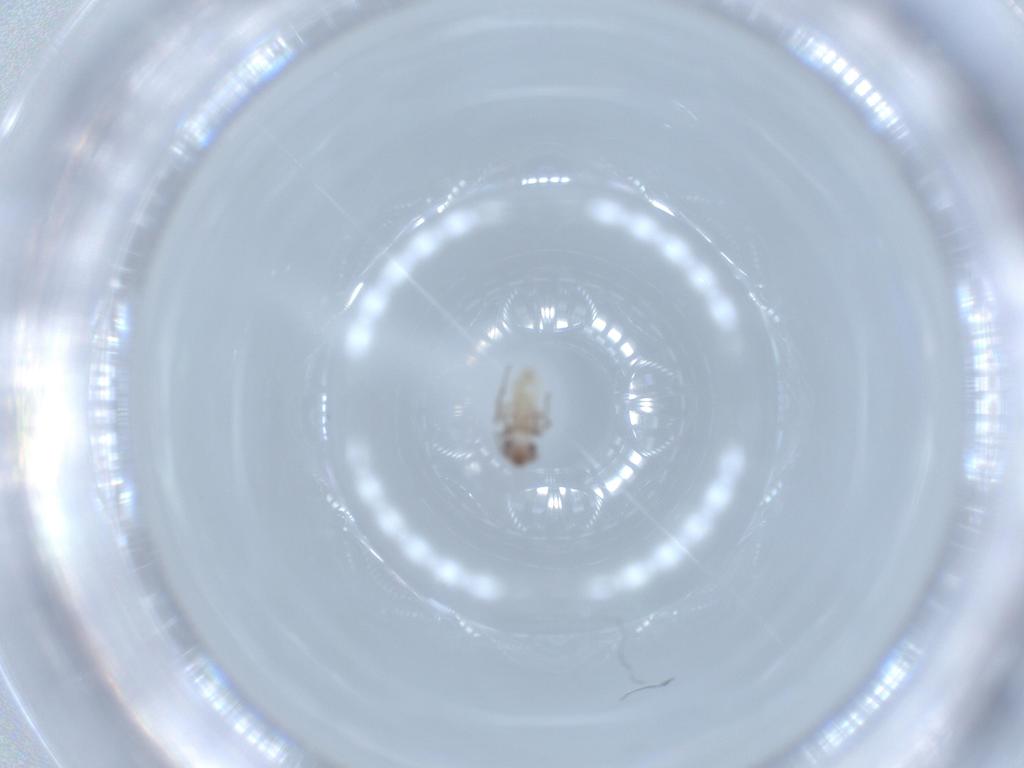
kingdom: Animalia
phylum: Arthropoda
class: Insecta
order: Psocodea
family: Lepidopsocidae
